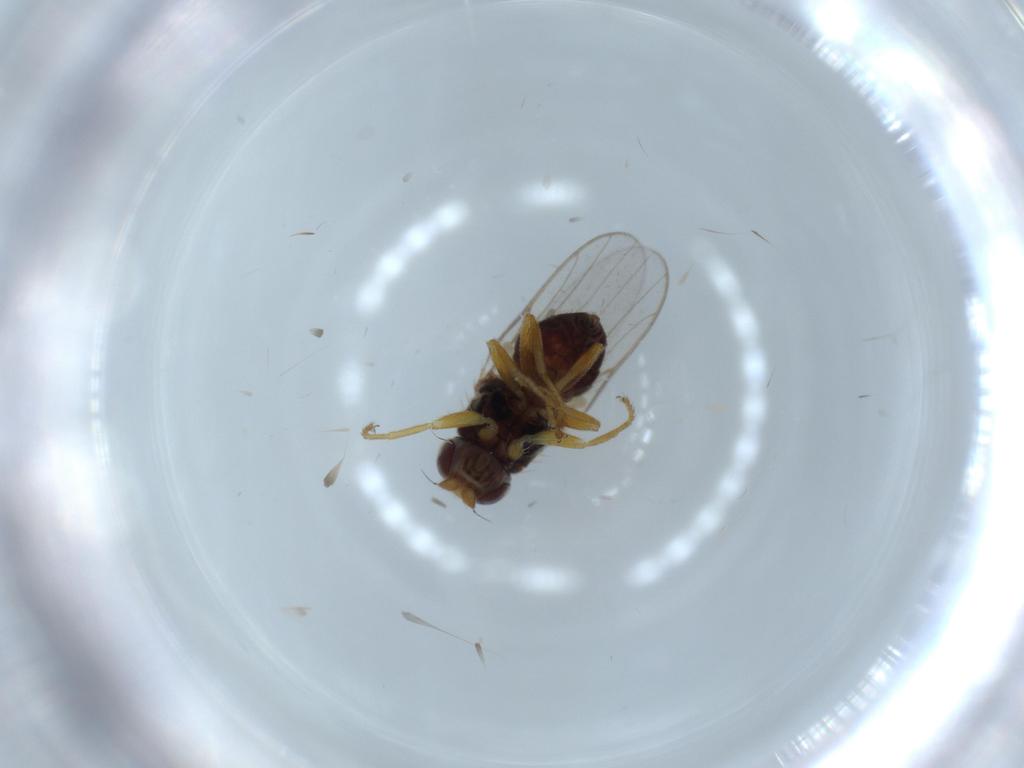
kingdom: Animalia
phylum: Arthropoda
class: Insecta
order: Diptera
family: Chloropidae
